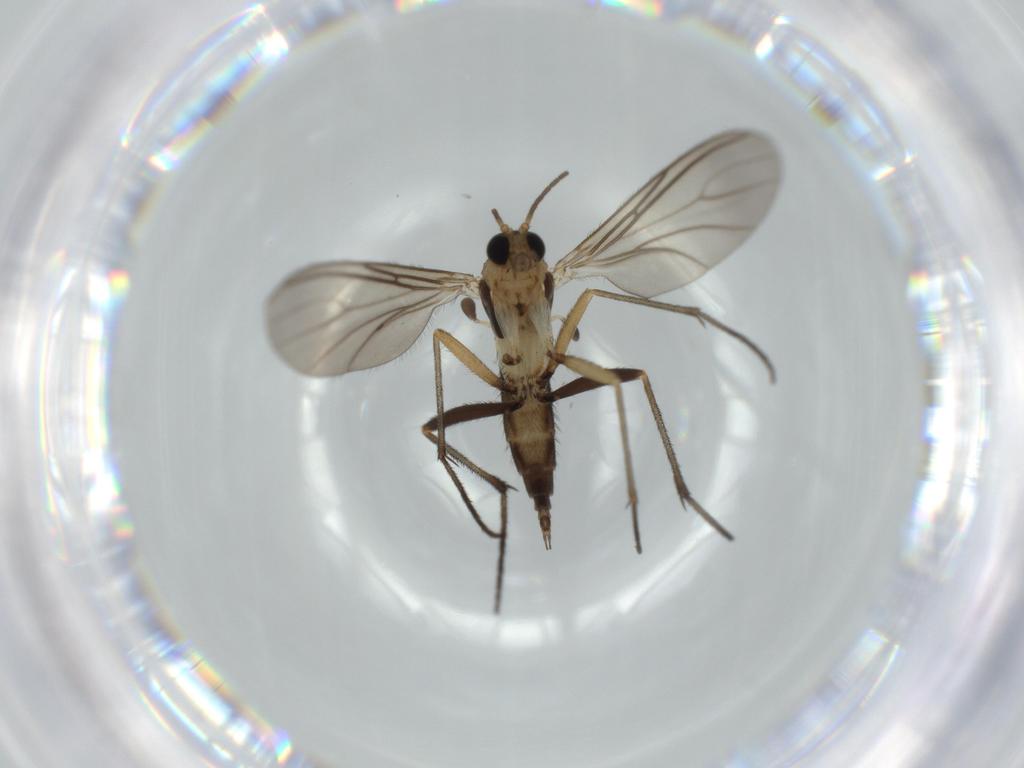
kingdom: Animalia
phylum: Arthropoda
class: Insecta
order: Diptera
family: Sciaridae
